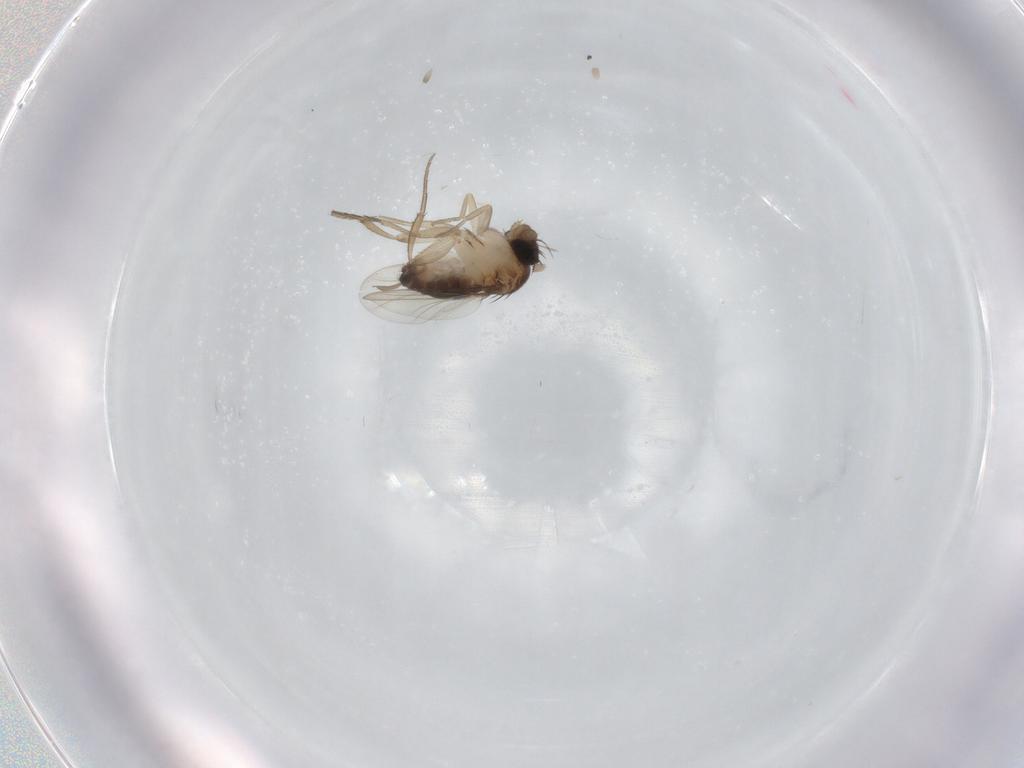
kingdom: Animalia
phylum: Arthropoda
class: Insecta
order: Diptera
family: Phoridae
